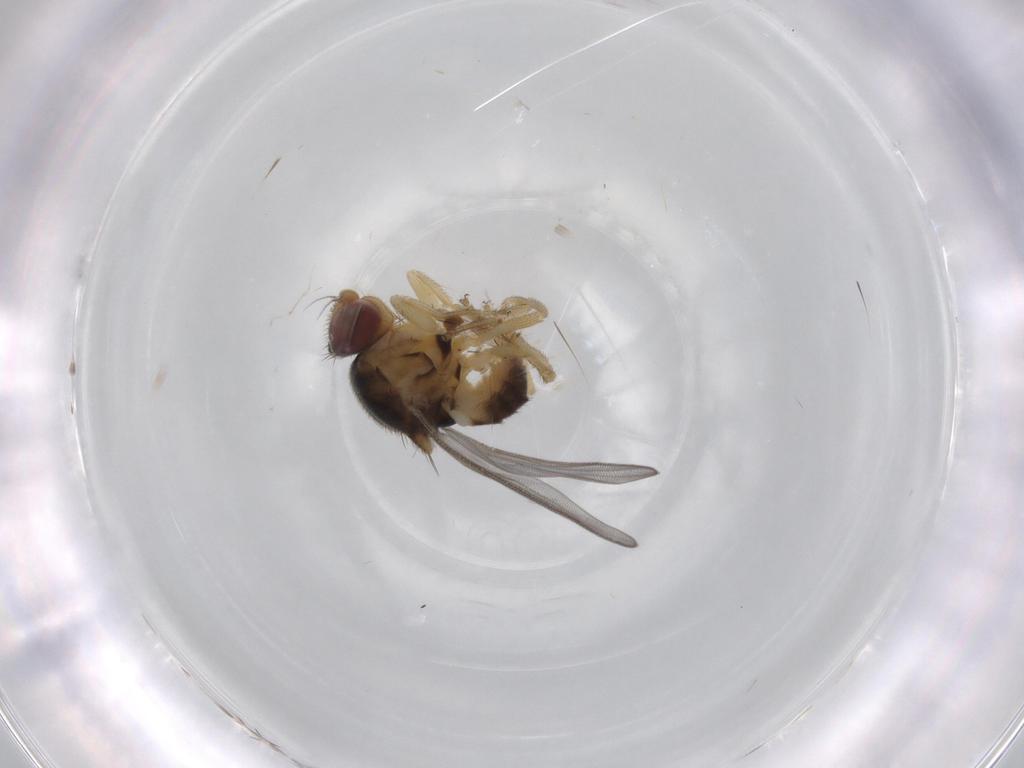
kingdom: Animalia
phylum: Arthropoda
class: Insecta
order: Diptera
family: Chloropidae
